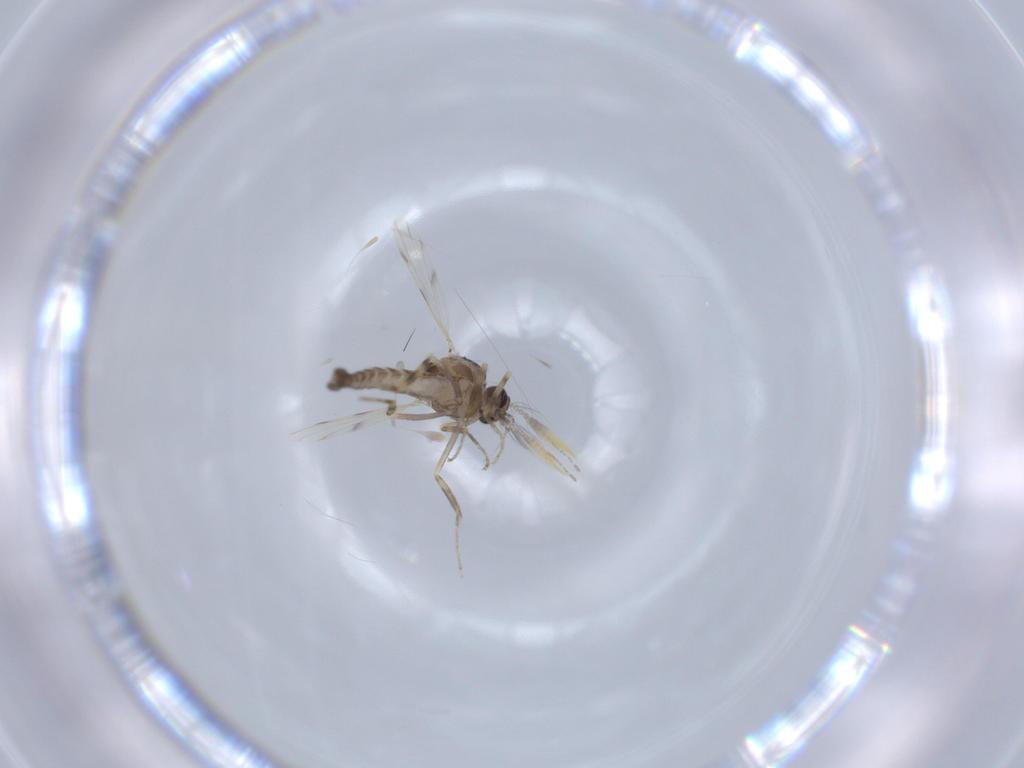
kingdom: Animalia
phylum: Arthropoda
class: Insecta
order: Diptera
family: Ceratopogonidae
